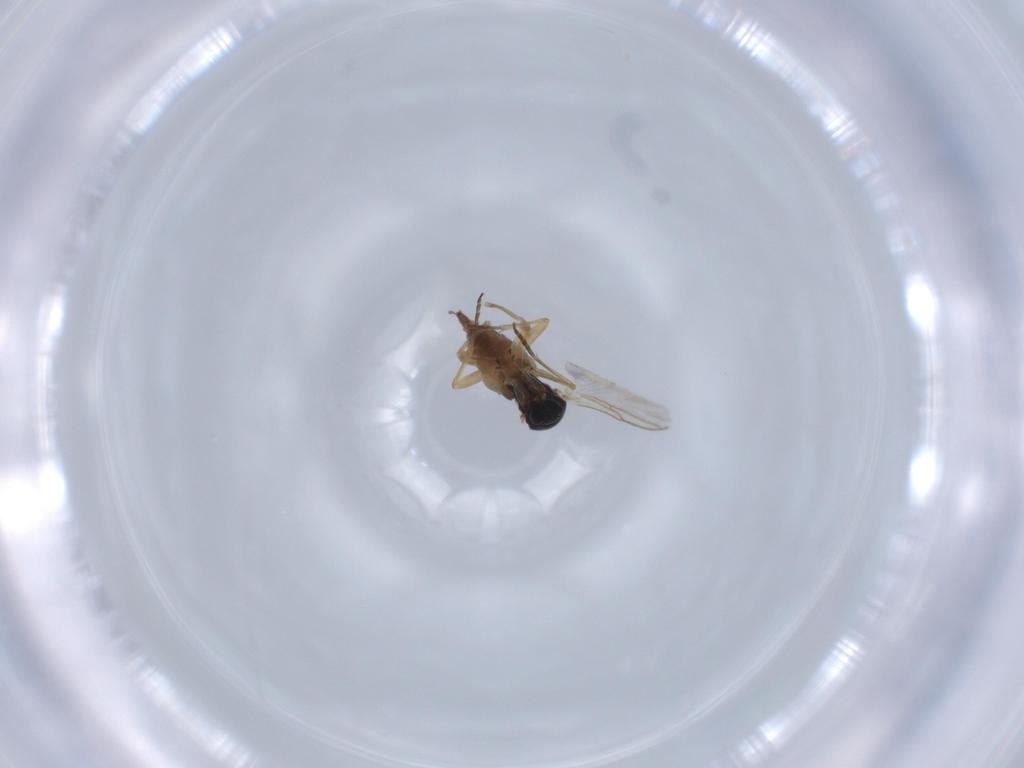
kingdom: Animalia
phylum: Arthropoda
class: Insecta
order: Diptera
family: Sciaridae
